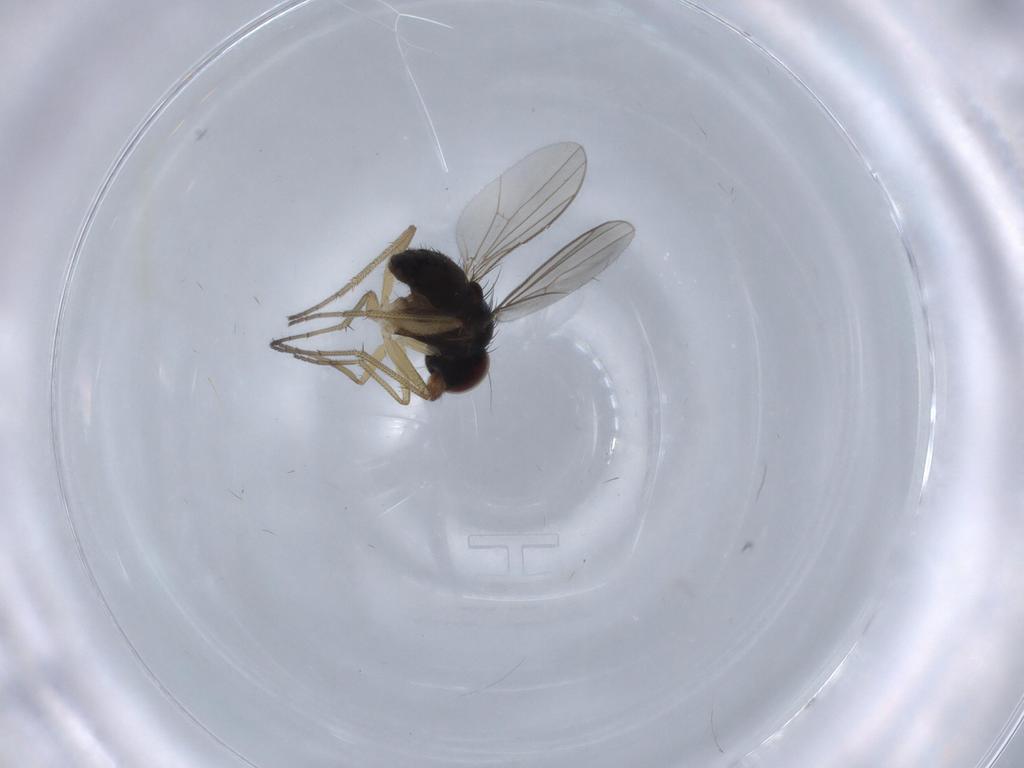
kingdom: Animalia
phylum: Arthropoda
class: Insecta
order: Diptera
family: Dolichopodidae
